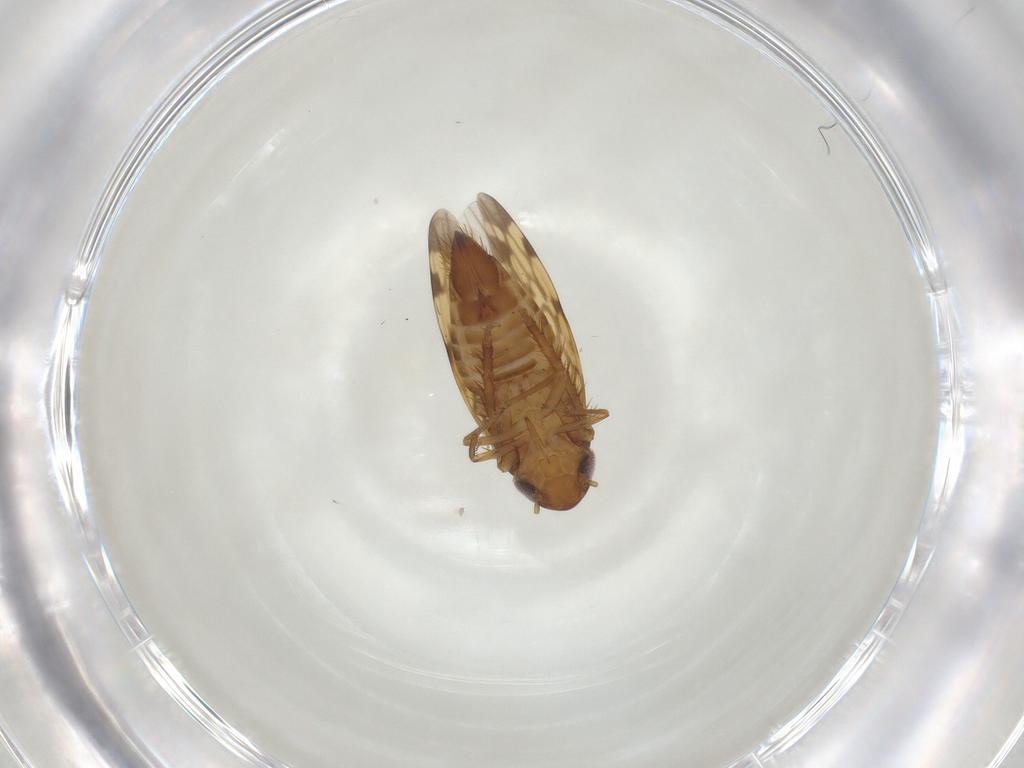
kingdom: Animalia
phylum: Arthropoda
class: Insecta
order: Hemiptera
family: Cicadellidae
